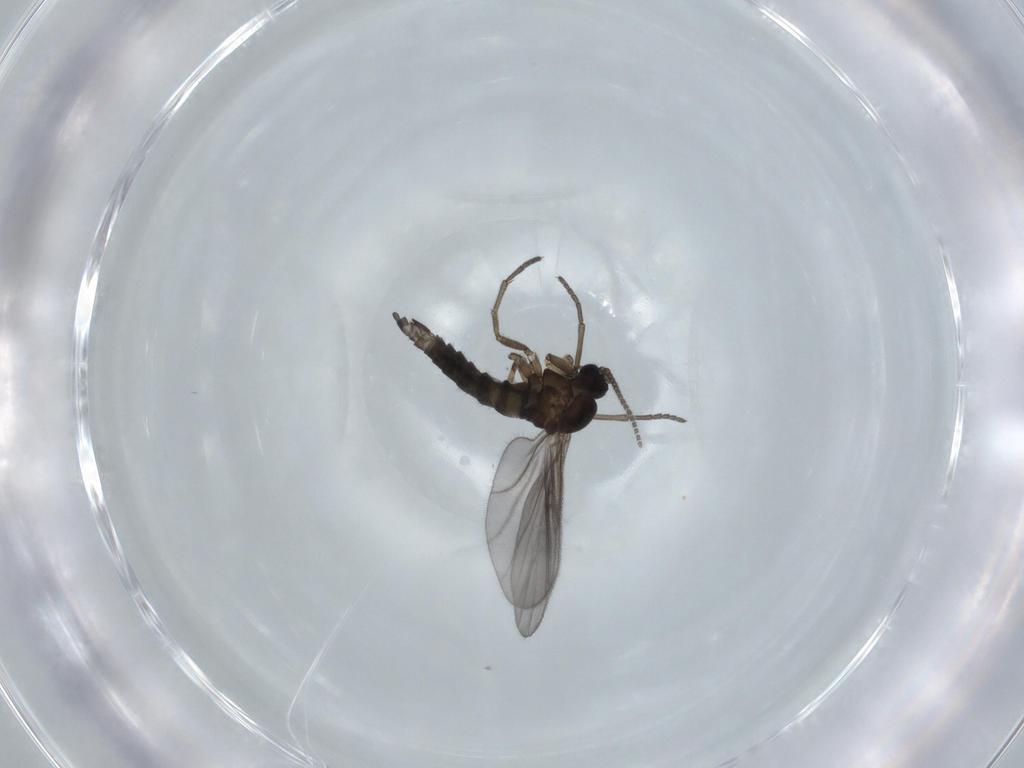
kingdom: Animalia
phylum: Arthropoda
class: Insecta
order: Diptera
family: Sciaridae
